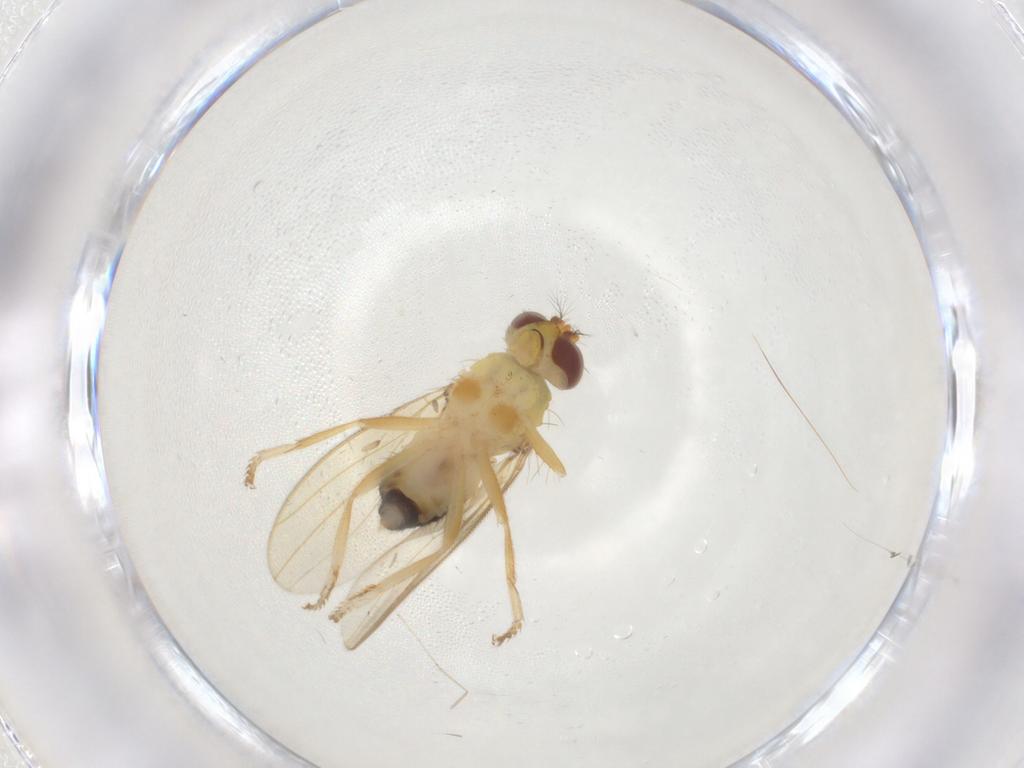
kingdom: Animalia
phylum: Arthropoda
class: Insecta
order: Diptera
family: Periscelididae
